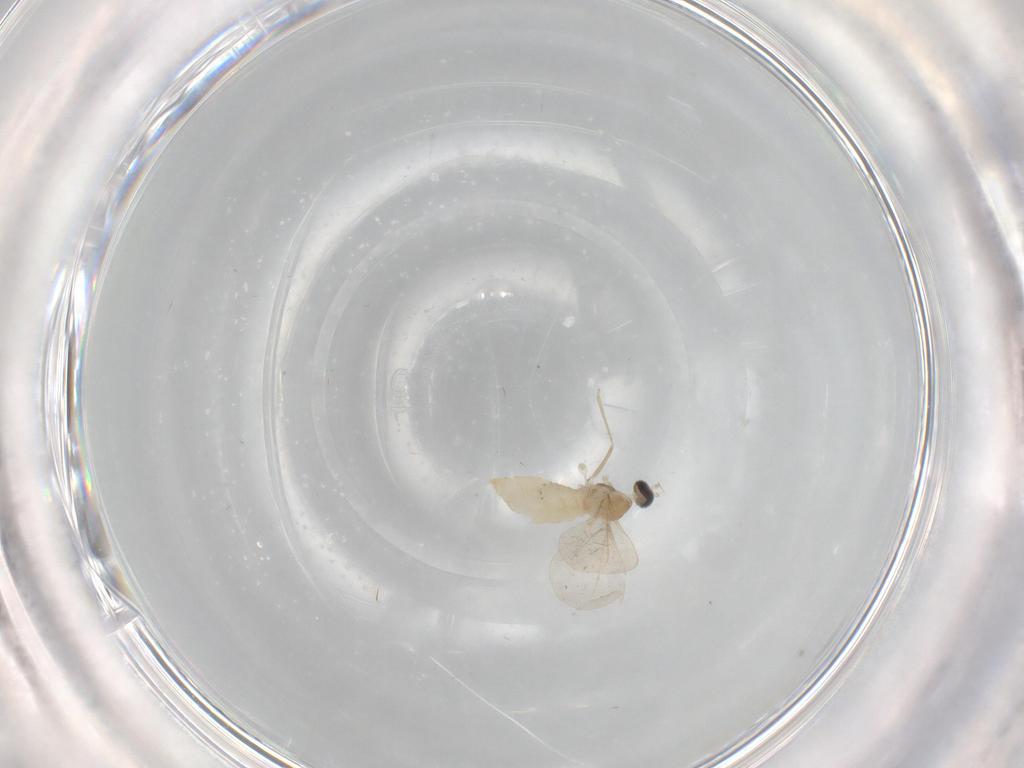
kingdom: Animalia
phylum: Arthropoda
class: Insecta
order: Diptera
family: Cecidomyiidae
